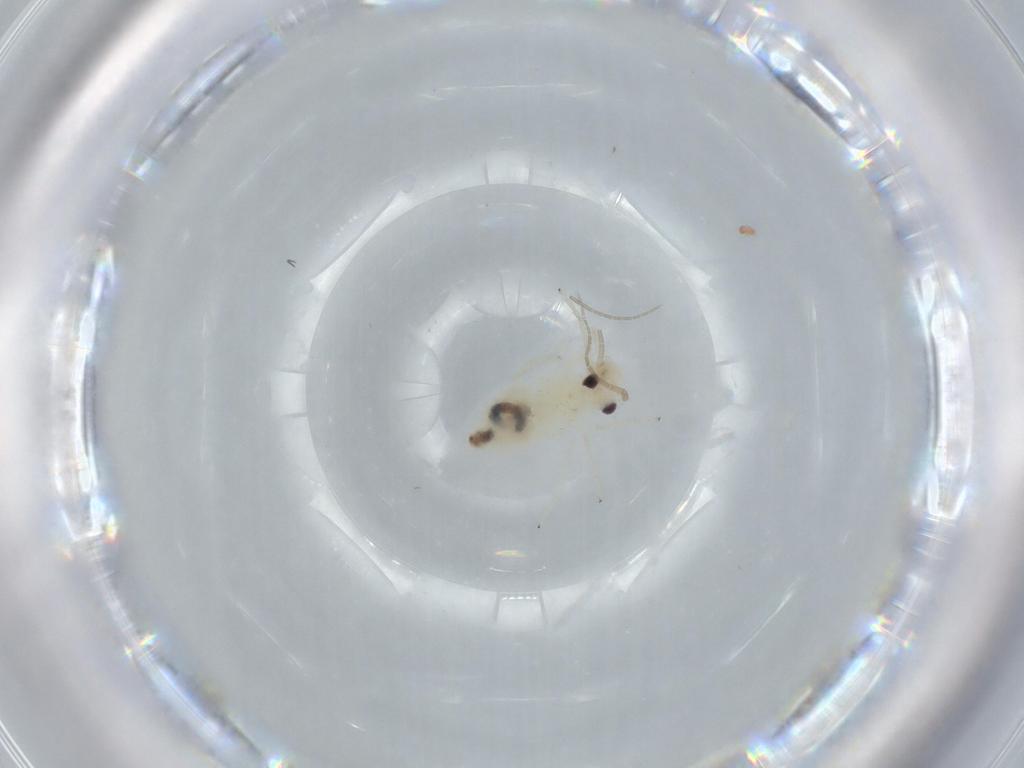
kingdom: Animalia
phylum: Arthropoda
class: Insecta
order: Psocodea
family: Caeciliusidae
